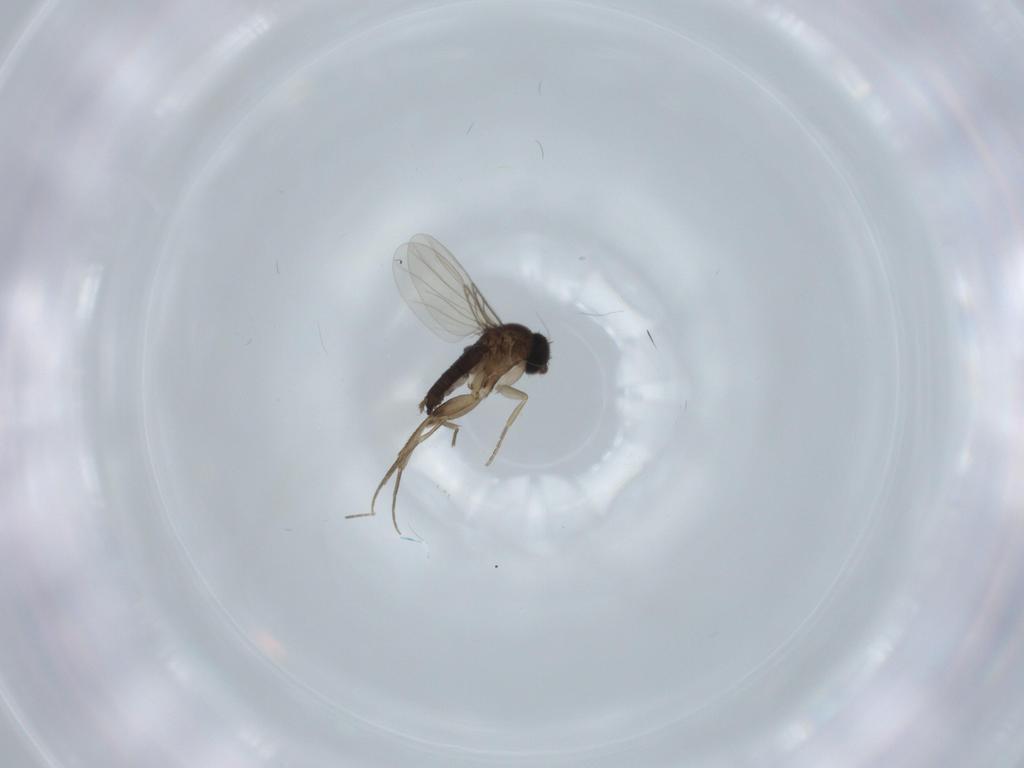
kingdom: Animalia
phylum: Arthropoda
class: Insecta
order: Diptera
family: Phoridae
